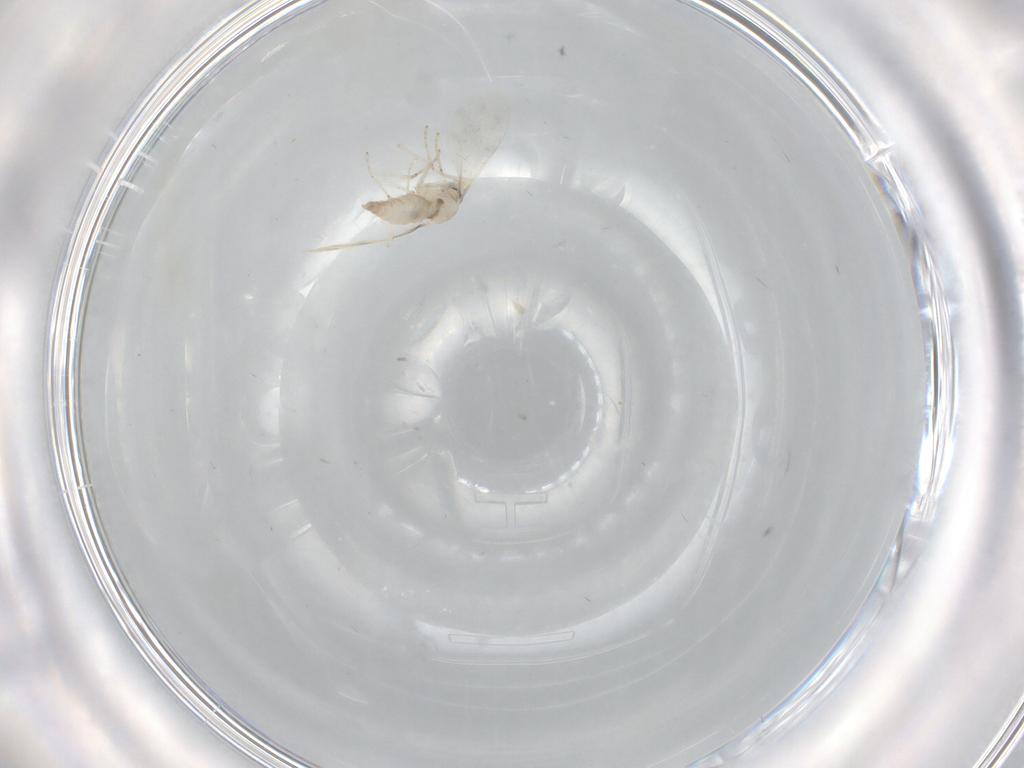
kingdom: Animalia
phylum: Arthropoda
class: Insecta
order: Diptera
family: Cecidomyiidae
